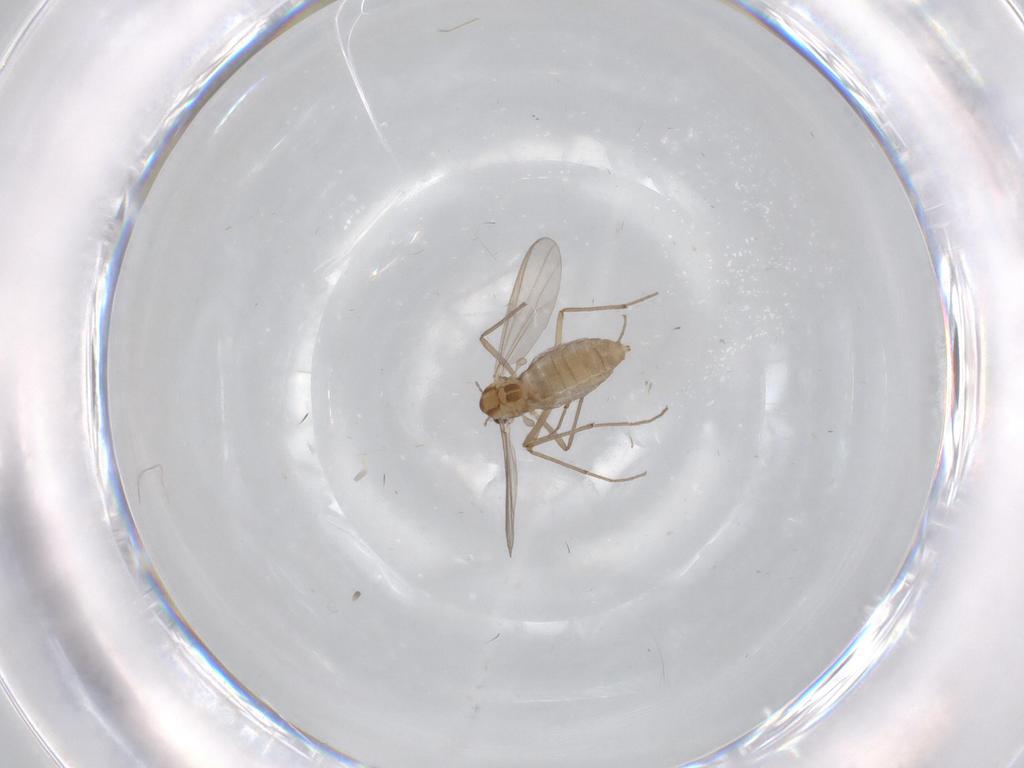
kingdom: Animalia
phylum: Arthropoda
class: Insecta
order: Diptera
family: Chironomidae
